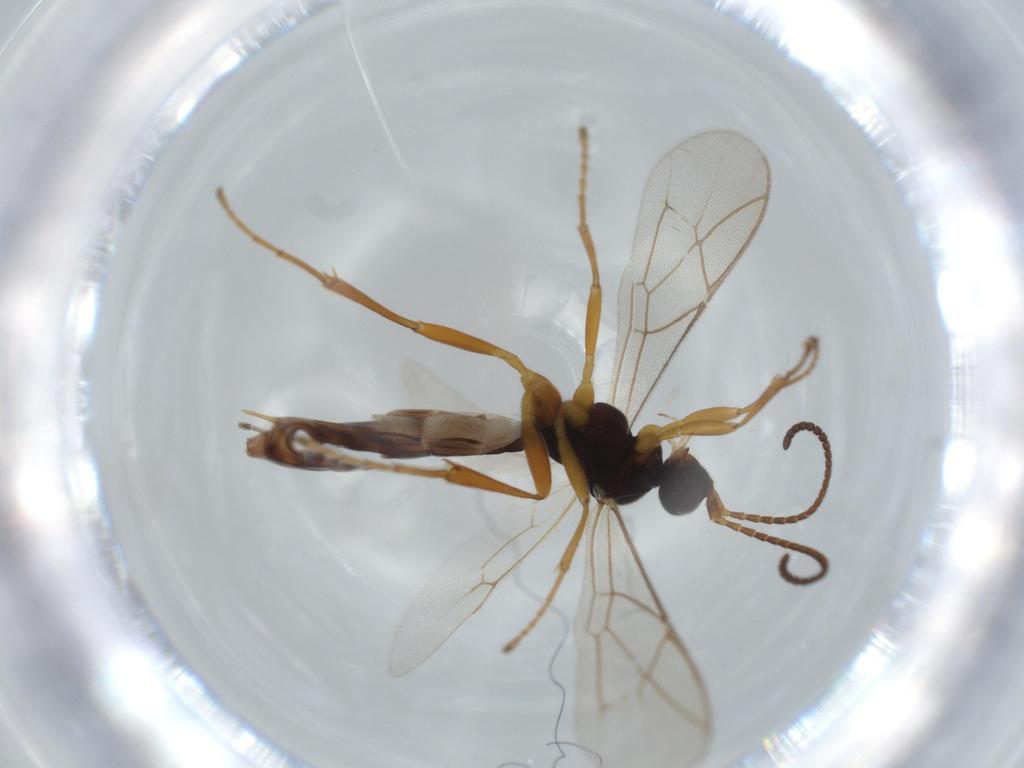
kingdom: Animalia
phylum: Arthropoda
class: Insecta
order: Hymenoptera
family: Ichneumonidae
